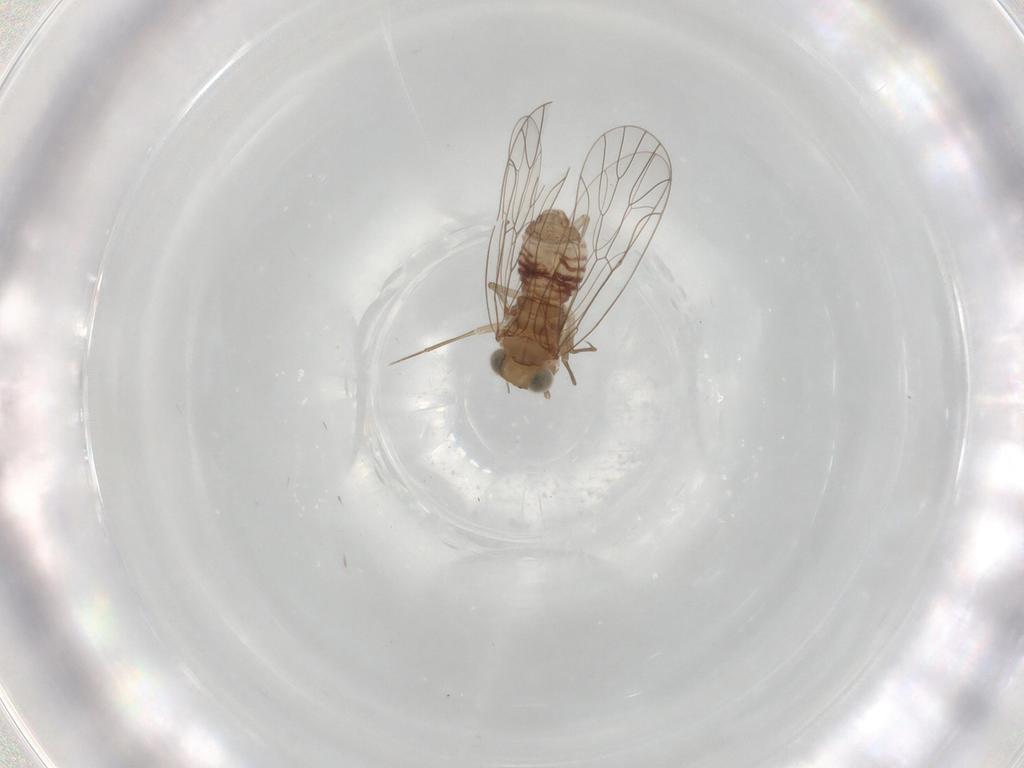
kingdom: Animalia
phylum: Arthropoda
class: Insecta
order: Psocodea
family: Amphientomidae
